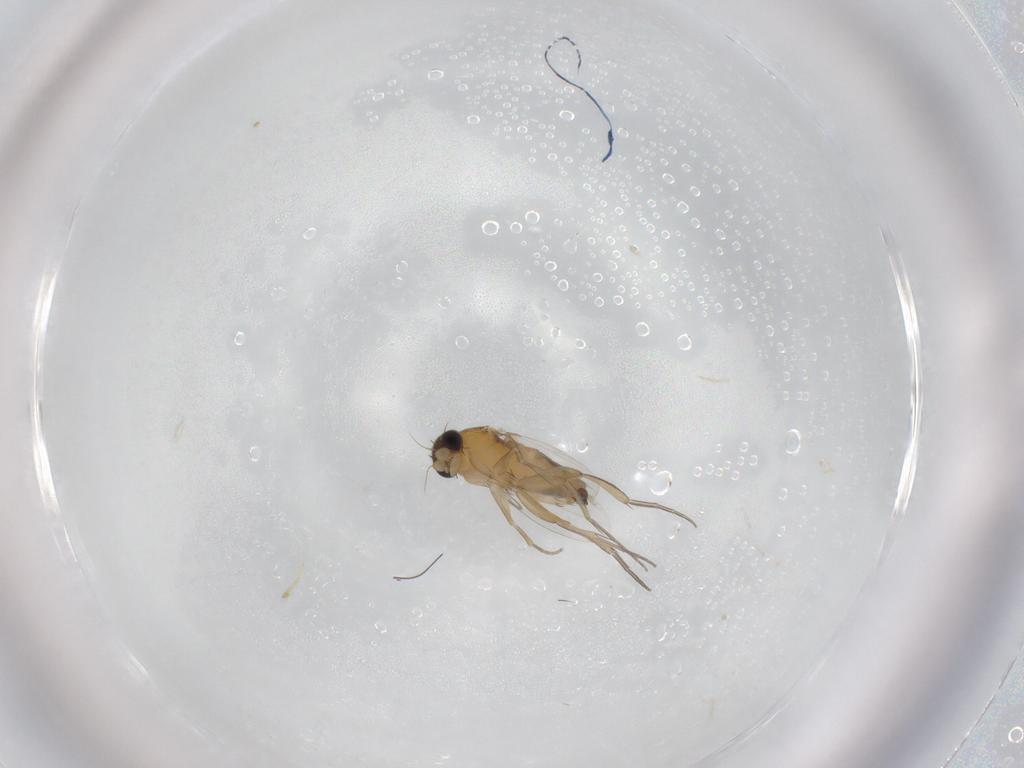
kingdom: Animalia
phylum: Arthropoda
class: Insecta
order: Diptera
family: Phoridae
